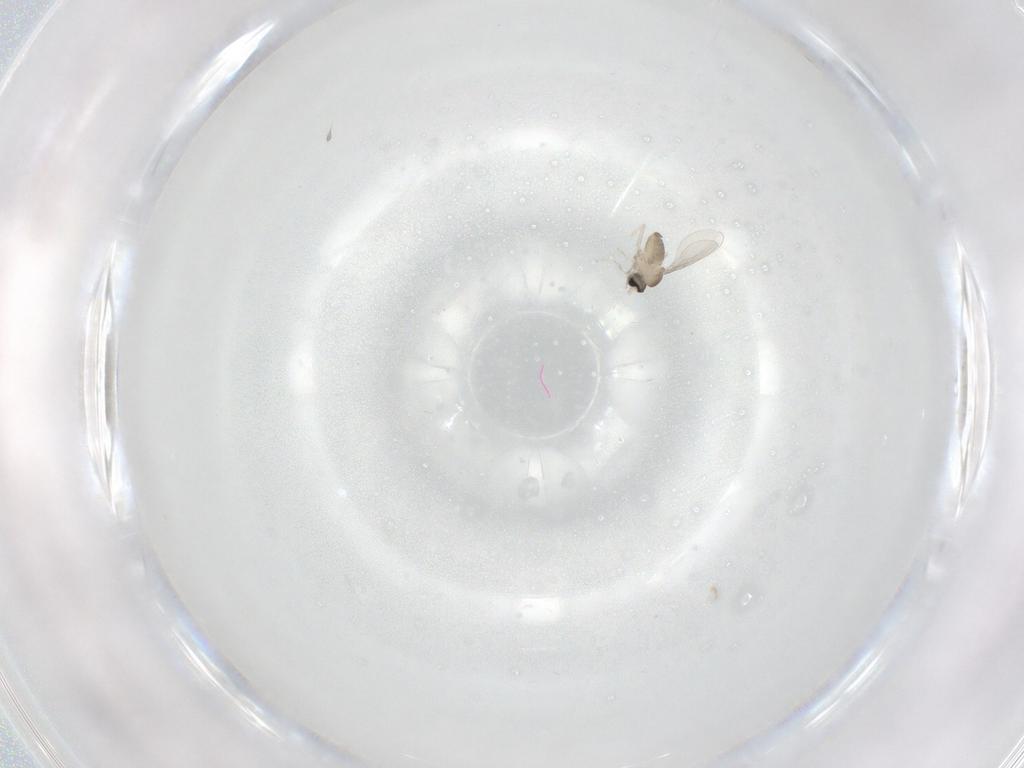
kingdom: Animalia
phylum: Arthropoda
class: Insecta
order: Diptera
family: Cecidomyiidae
